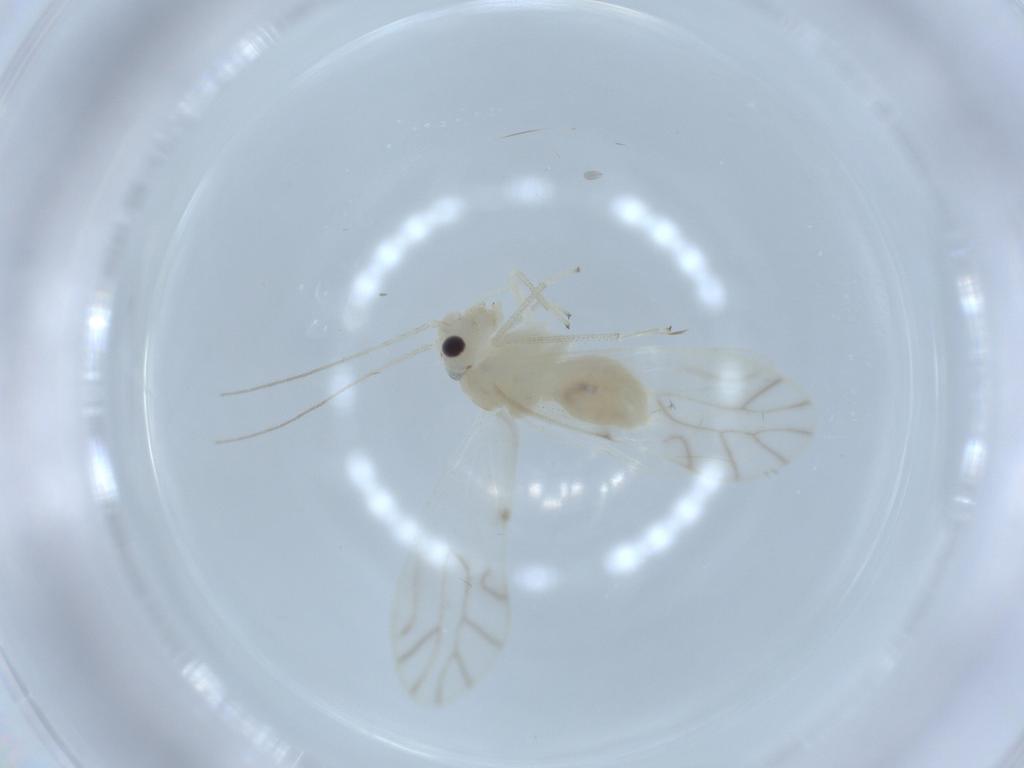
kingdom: Animalia
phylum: Arthropoda
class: Insecta
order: Psocodea
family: Caeciliusidae
